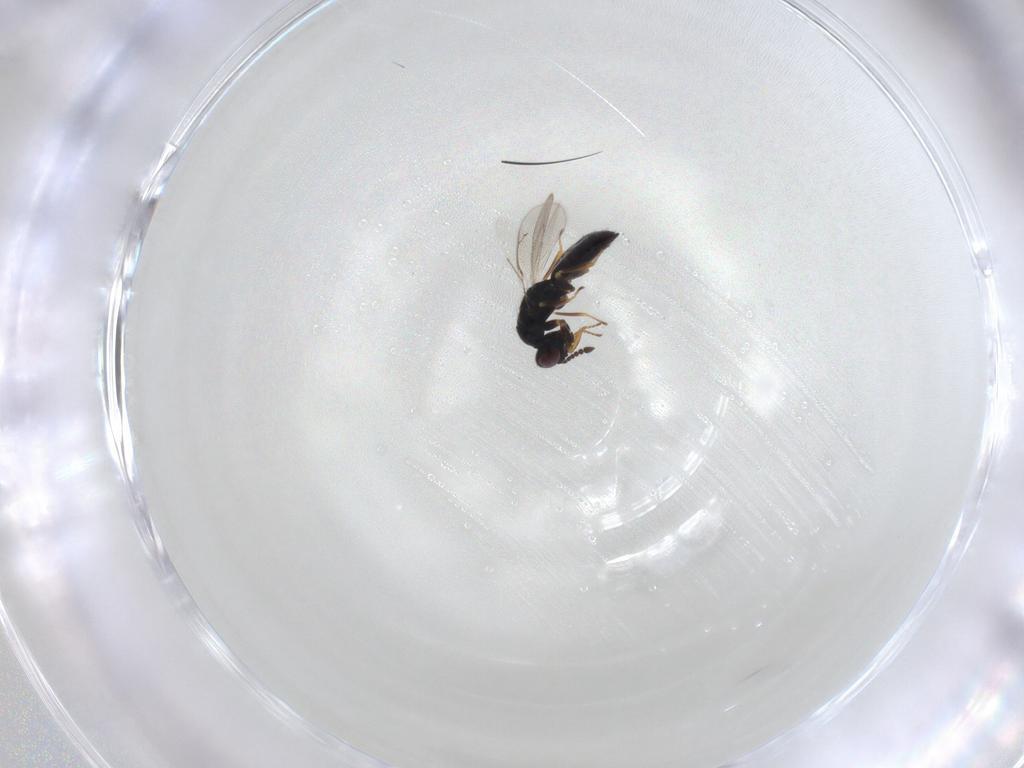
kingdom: Animalia
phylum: Arthropoda
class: Insecta
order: Hymenoptera
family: Eulophidae
